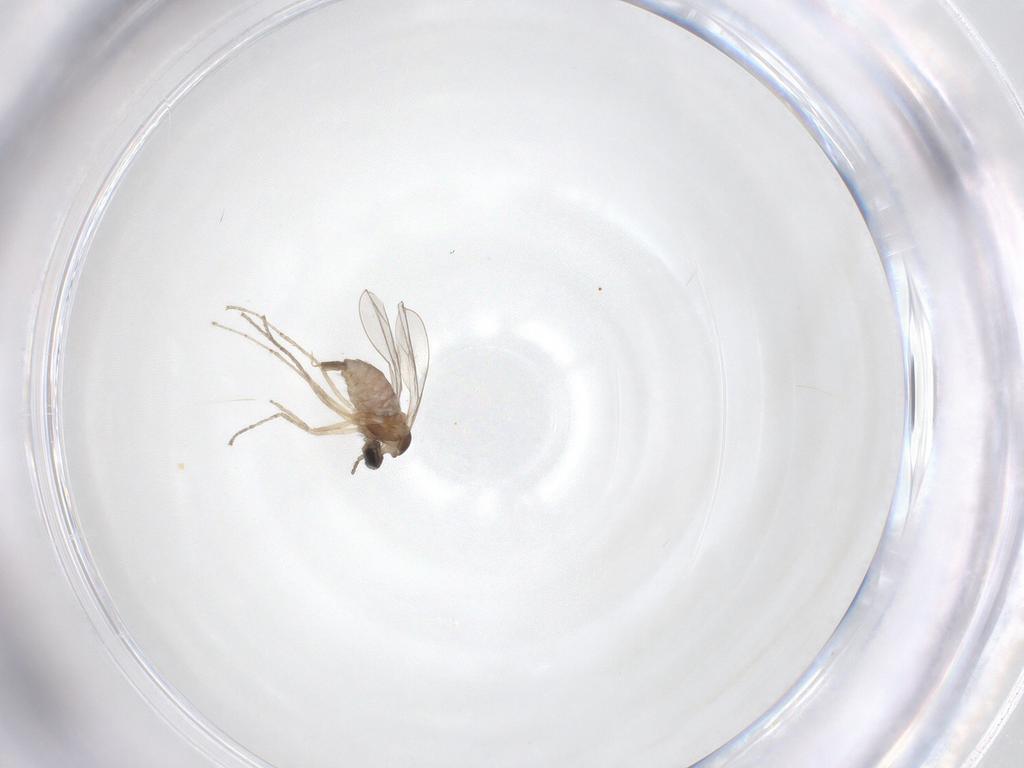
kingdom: Animalia
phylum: Arthropoda
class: Insecta
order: Diptera
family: Cecidomyiidae
